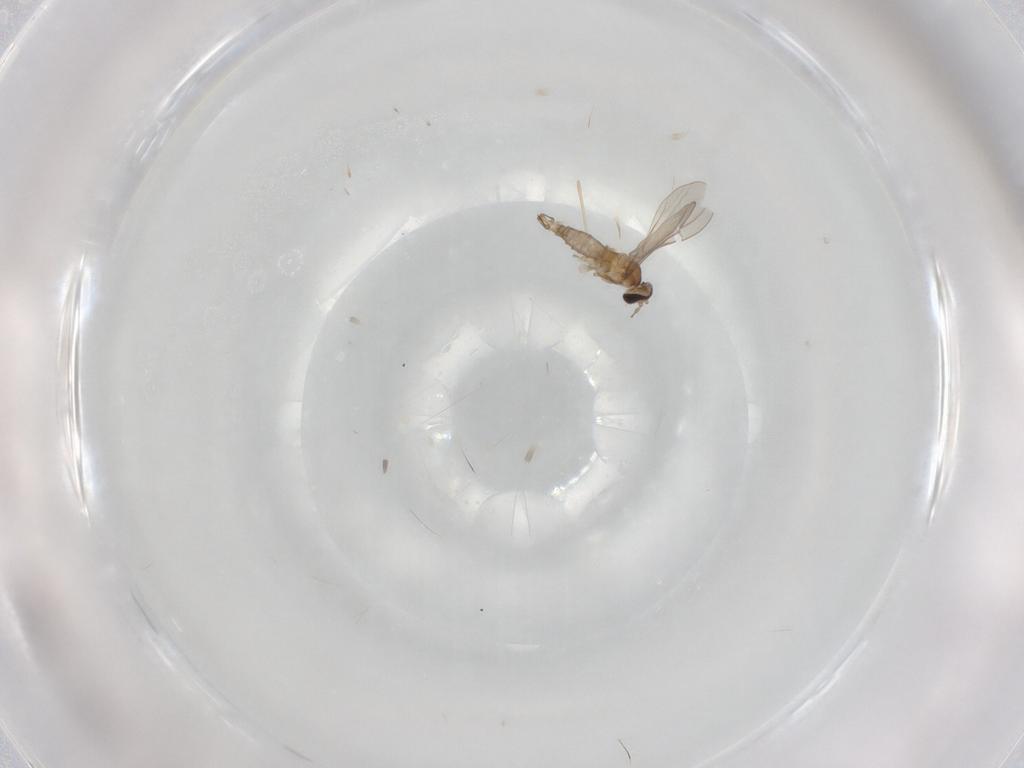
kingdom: Animalia
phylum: Arthropoda
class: Insecta
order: Diptera
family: Cecidomyiidae
